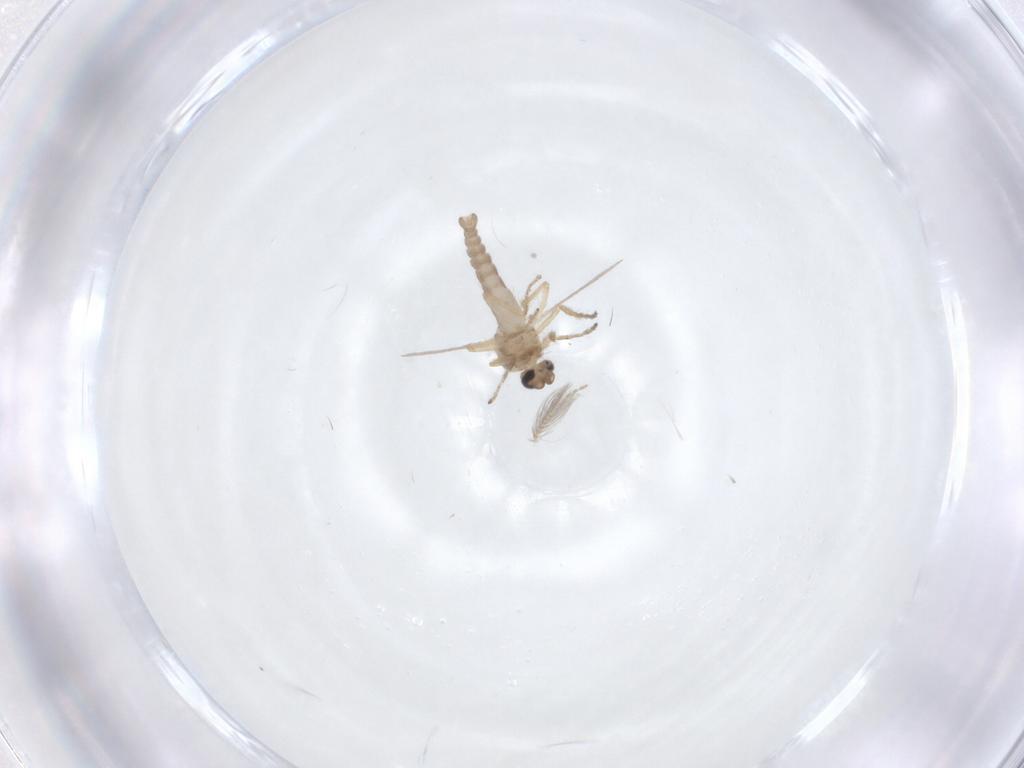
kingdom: Animalia
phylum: Arthropoda
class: Insecta
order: Diptera
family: Ceratopogonidae
